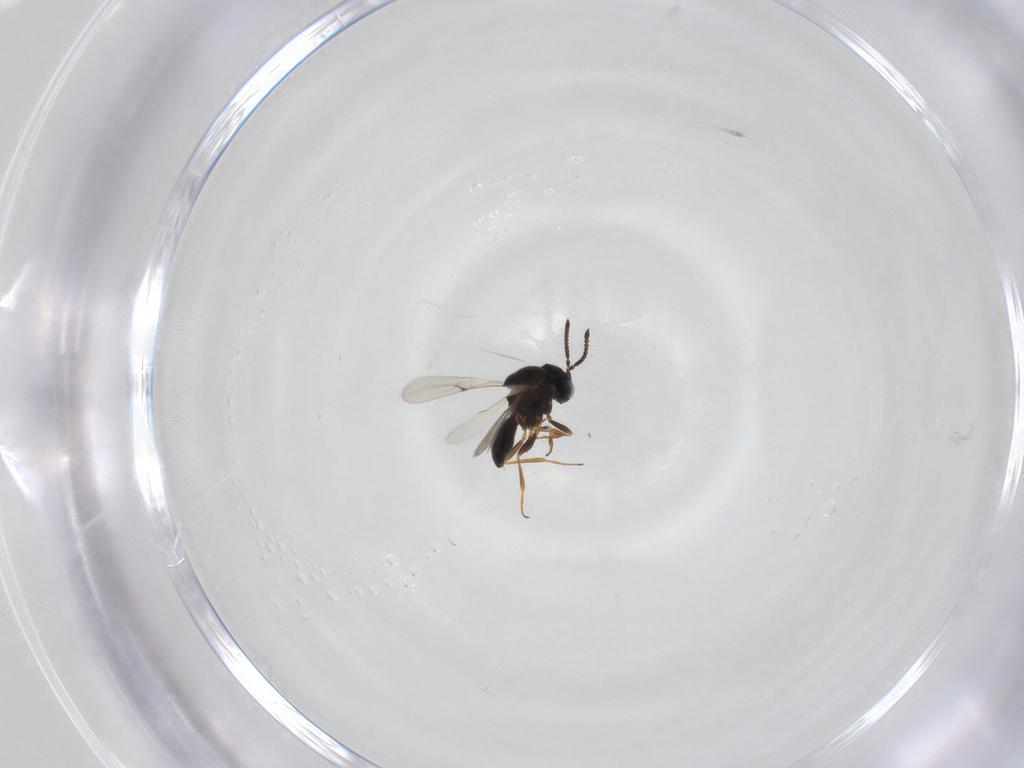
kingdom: Animalia
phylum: Arthropoda
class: Arachnida
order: Araneae
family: Pholcidae
